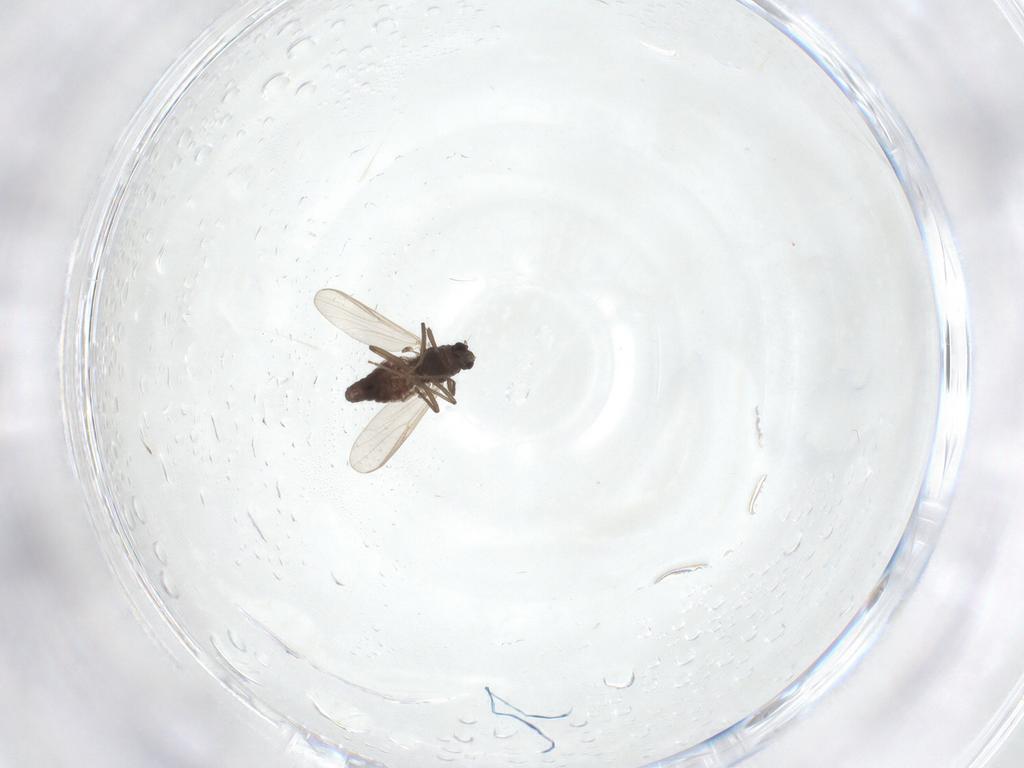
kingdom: Animalia
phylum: Arthropoda
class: Insecta
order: Diptera
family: Chironomidae
